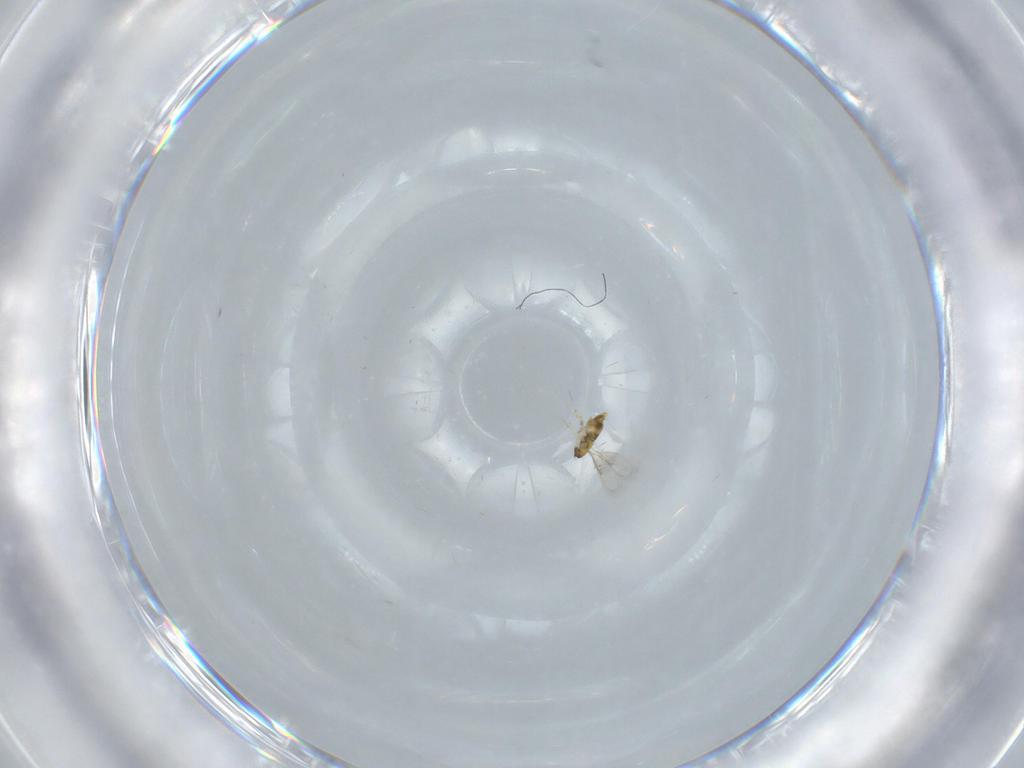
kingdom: Animalia
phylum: Arthropoda
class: Insecta
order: Hymenoptera
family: Aphelinidae
